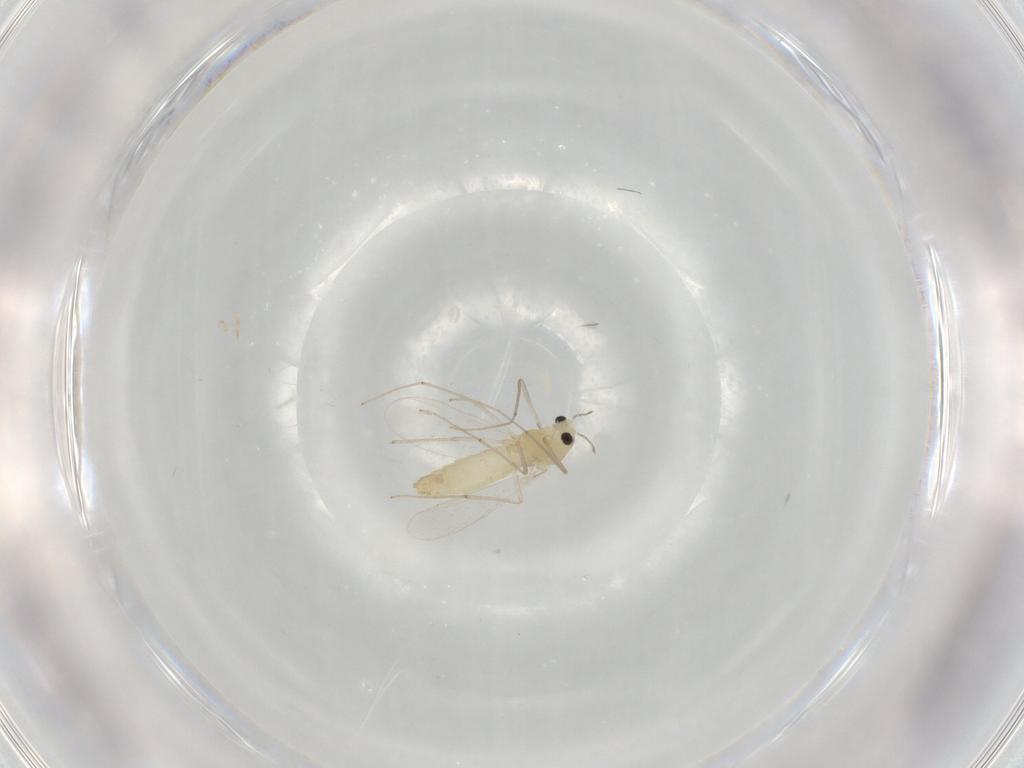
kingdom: Animalia
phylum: Arthropoda
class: Insecta
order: Diptera
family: Chironomidae
